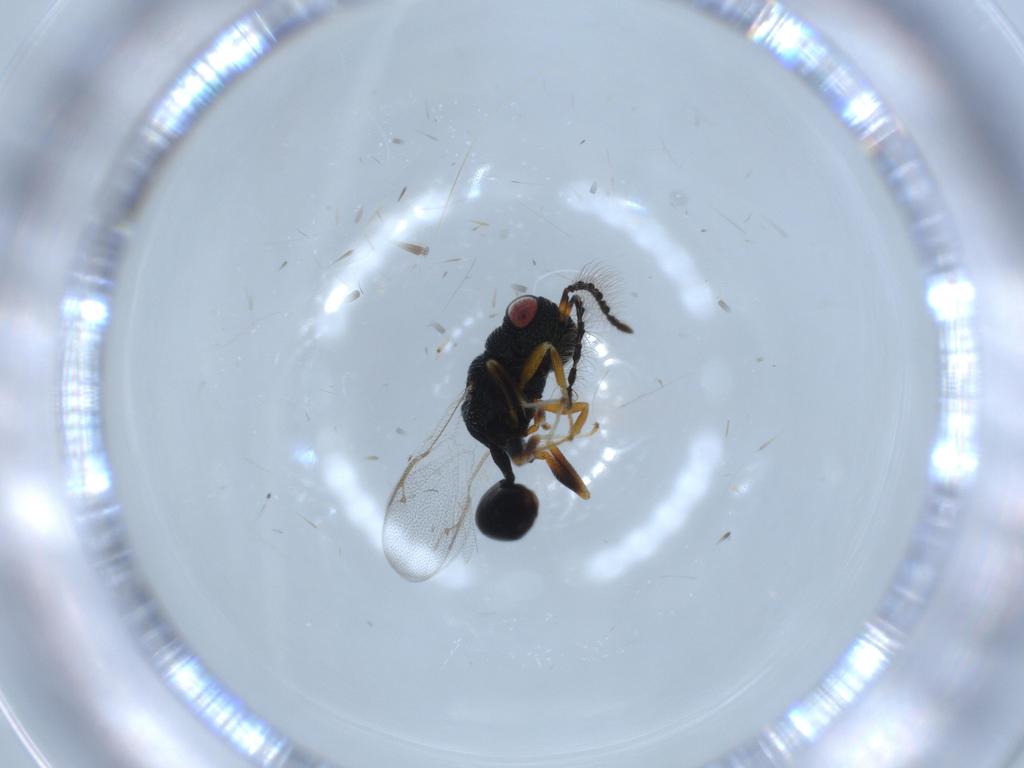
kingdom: Animalia
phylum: Arthropoda
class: Insecta
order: Hymenoptera
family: Eurytomidae
